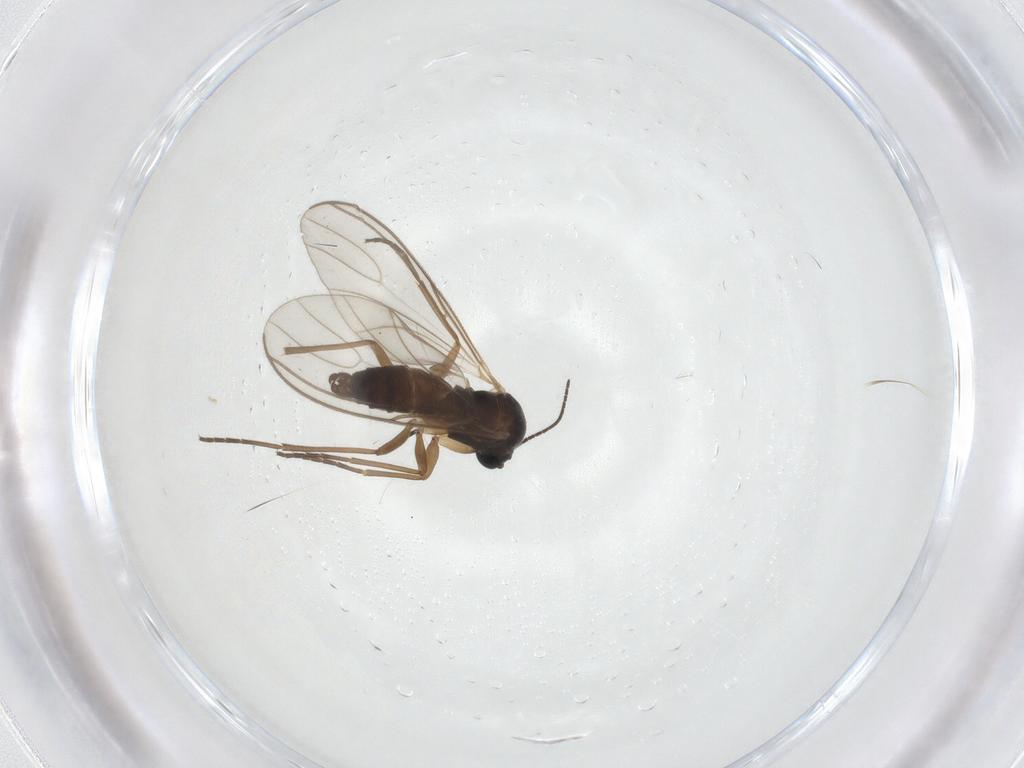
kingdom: Animalia
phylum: Arthropoda
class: Insecta
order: Diptera
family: Sciaridae
